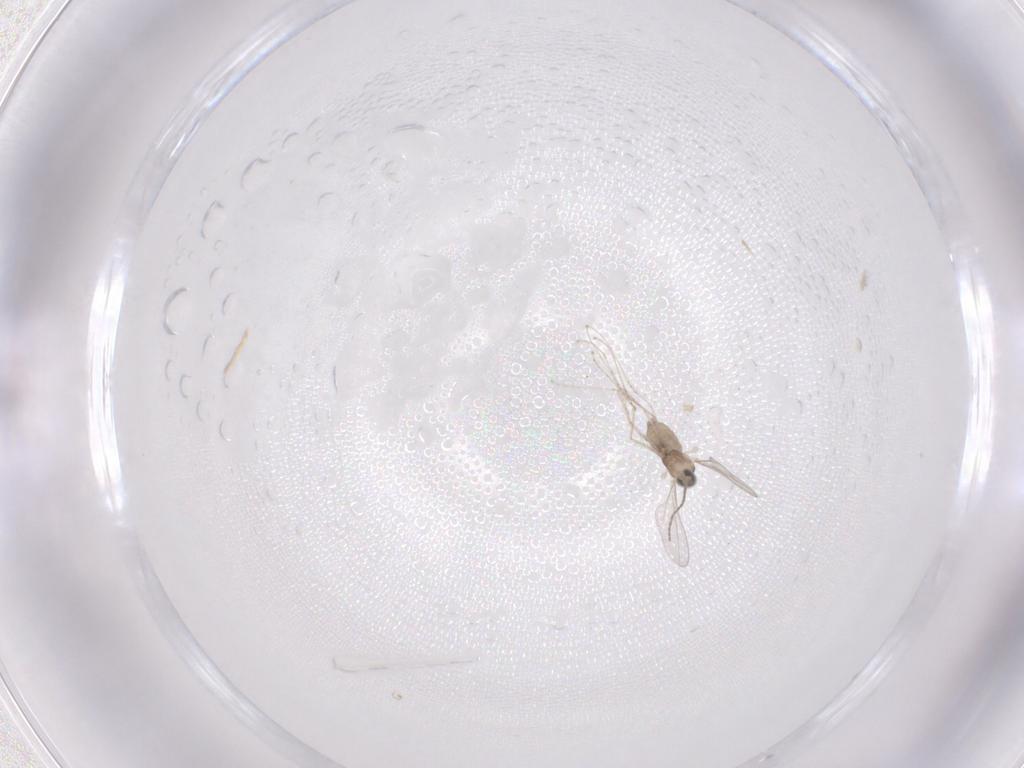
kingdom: Animalia
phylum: Arthropoda
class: Insecta
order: Diptera
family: Cecidomyiidae
